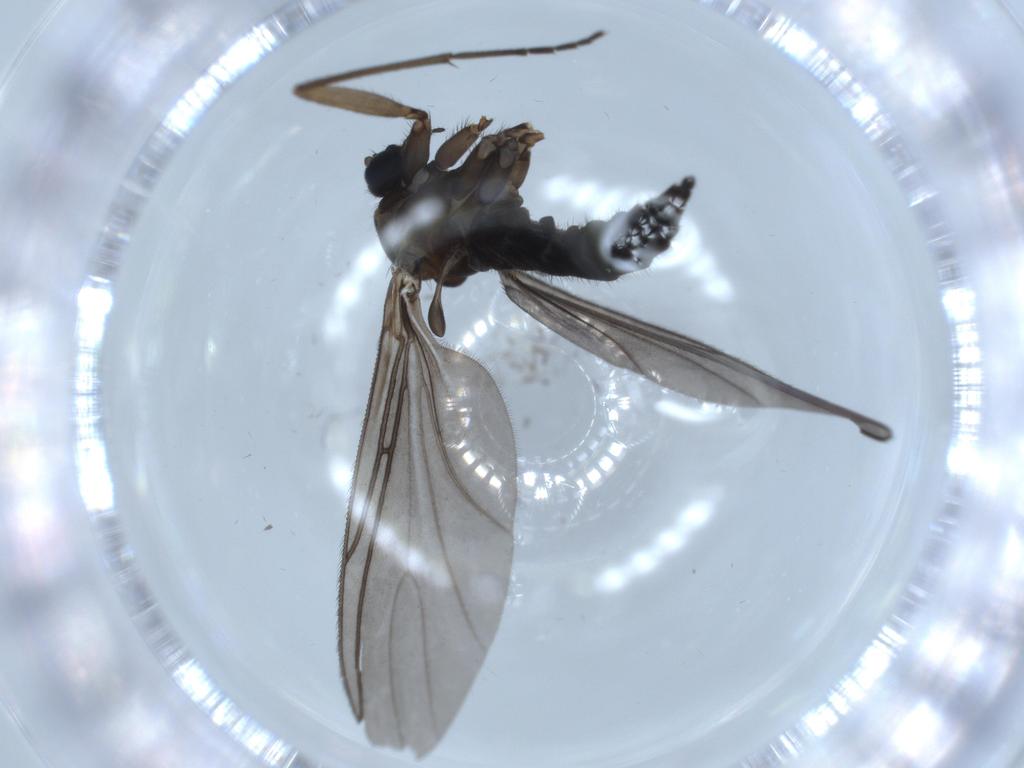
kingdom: Animalia
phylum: Arthropoda
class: Insecta
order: Diptera
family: Sciaridae
